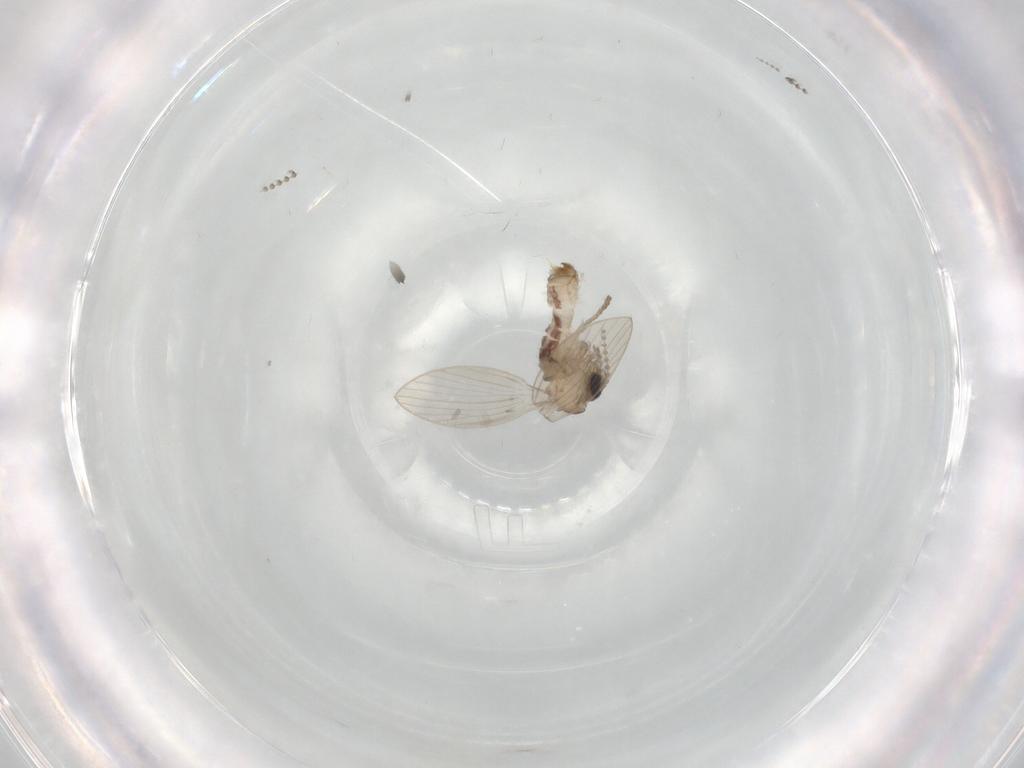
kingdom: Animalia
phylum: Arthropoda
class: Insecta
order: Diptera
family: Psychodidae
